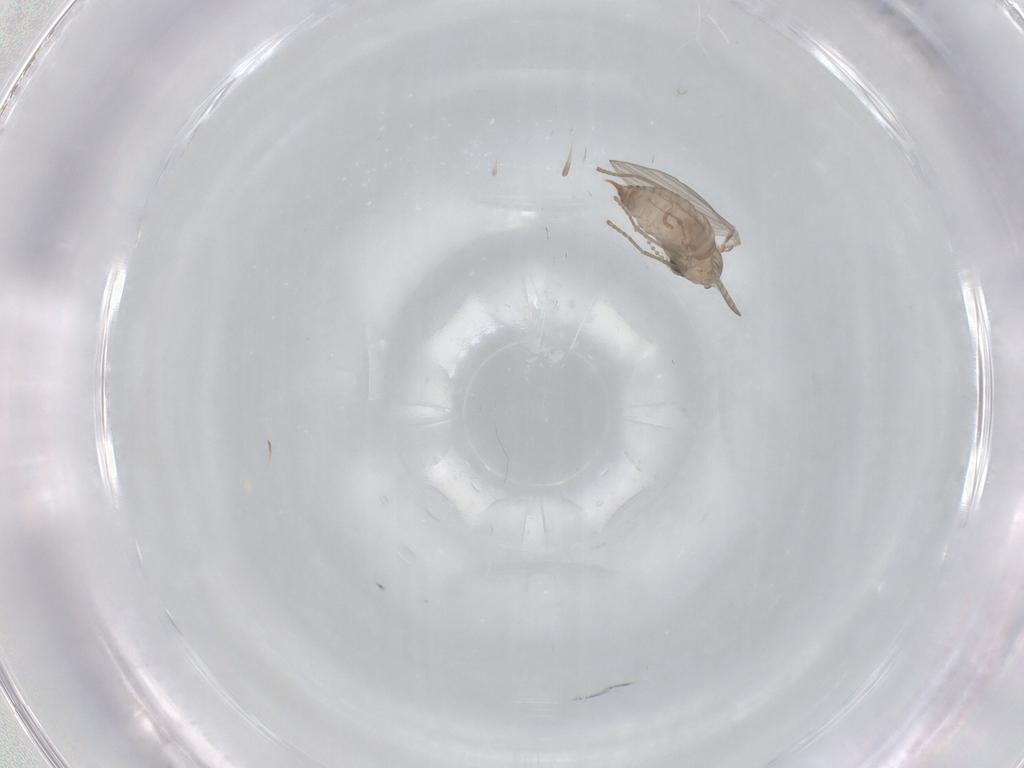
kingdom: Animalia
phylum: Arthropoda
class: Insecta
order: Diptera
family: Psychodidae
